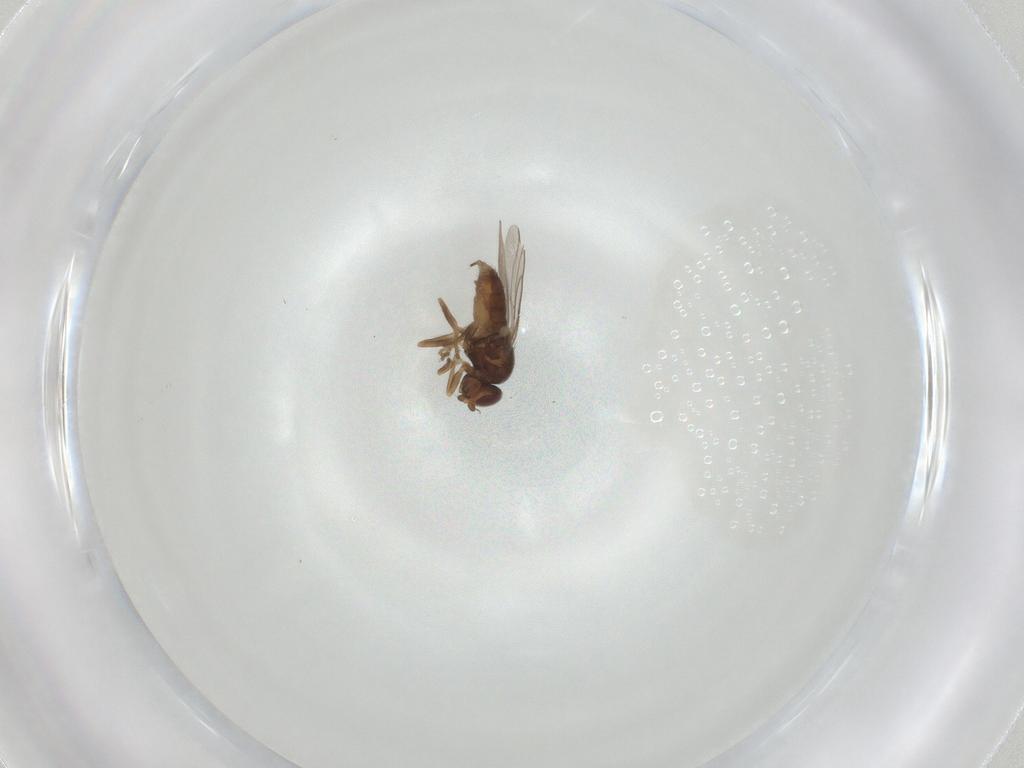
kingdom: Animalia
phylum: Arthropoda
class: Insecta
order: Diptera
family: Chloropidae
